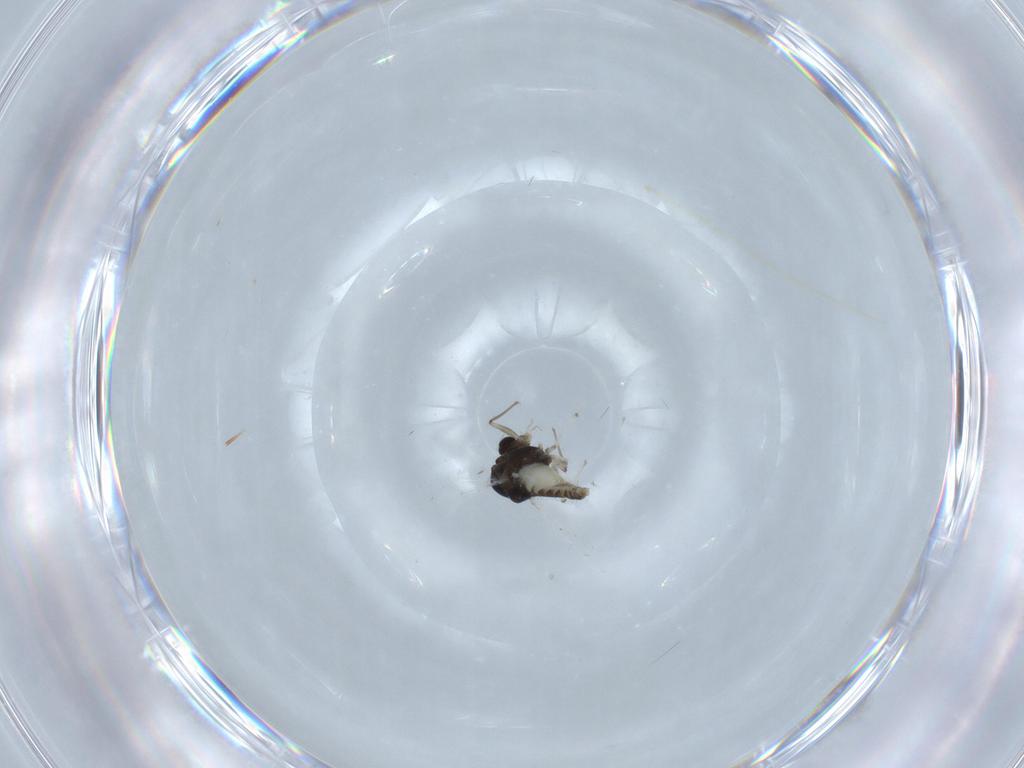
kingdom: Animalia
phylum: Arthropoda
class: Insecta
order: Diptera
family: Chironomidae
